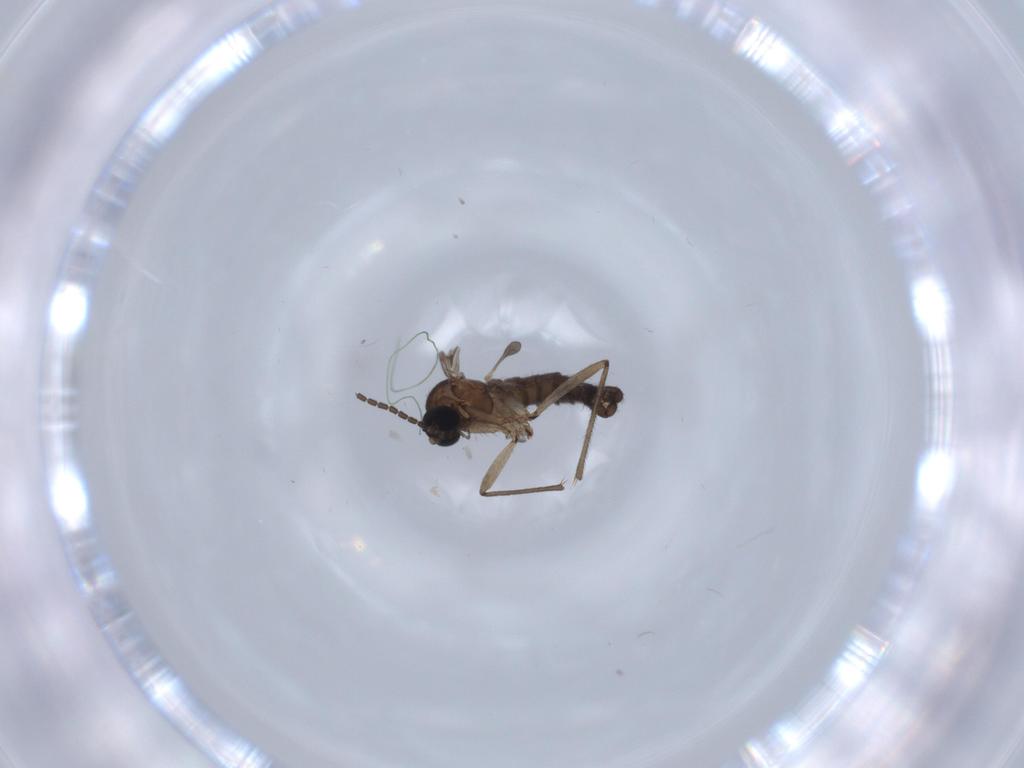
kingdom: Animalia
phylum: Arthropoda
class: Insecta
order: Diptera
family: Sciaridae
